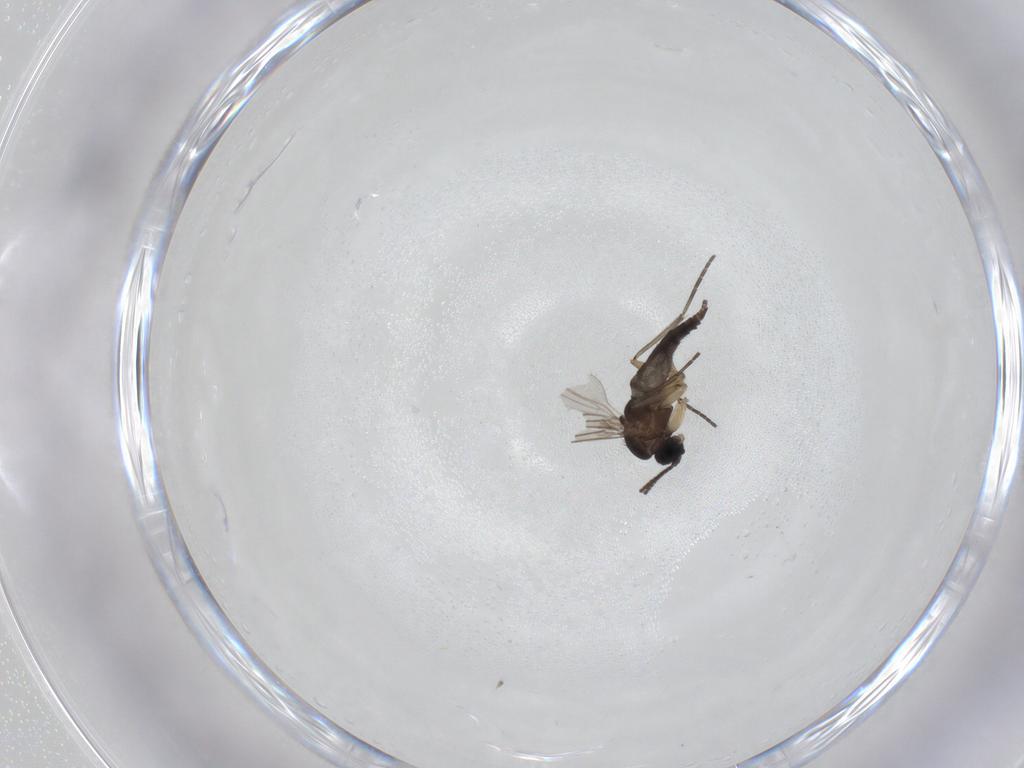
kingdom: Animalia
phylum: Arthropoda
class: Insecta
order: Diptera
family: Sciaridae
